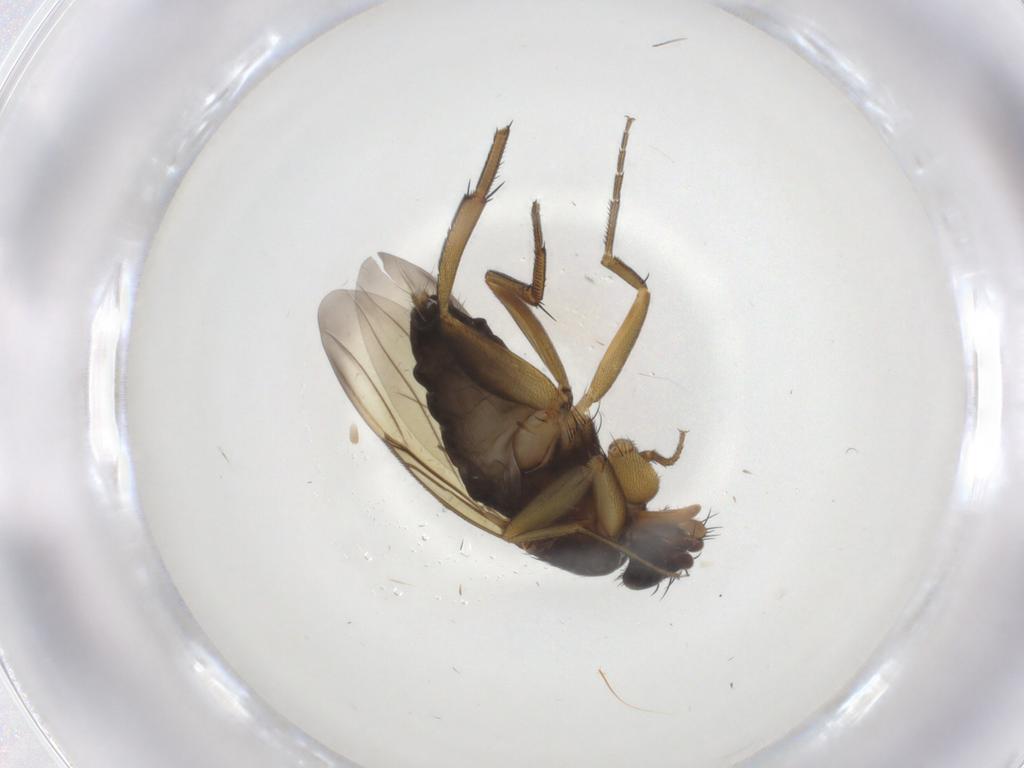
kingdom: Animalia
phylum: Arthropoda
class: Insecta
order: Diptera
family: Phoridae
